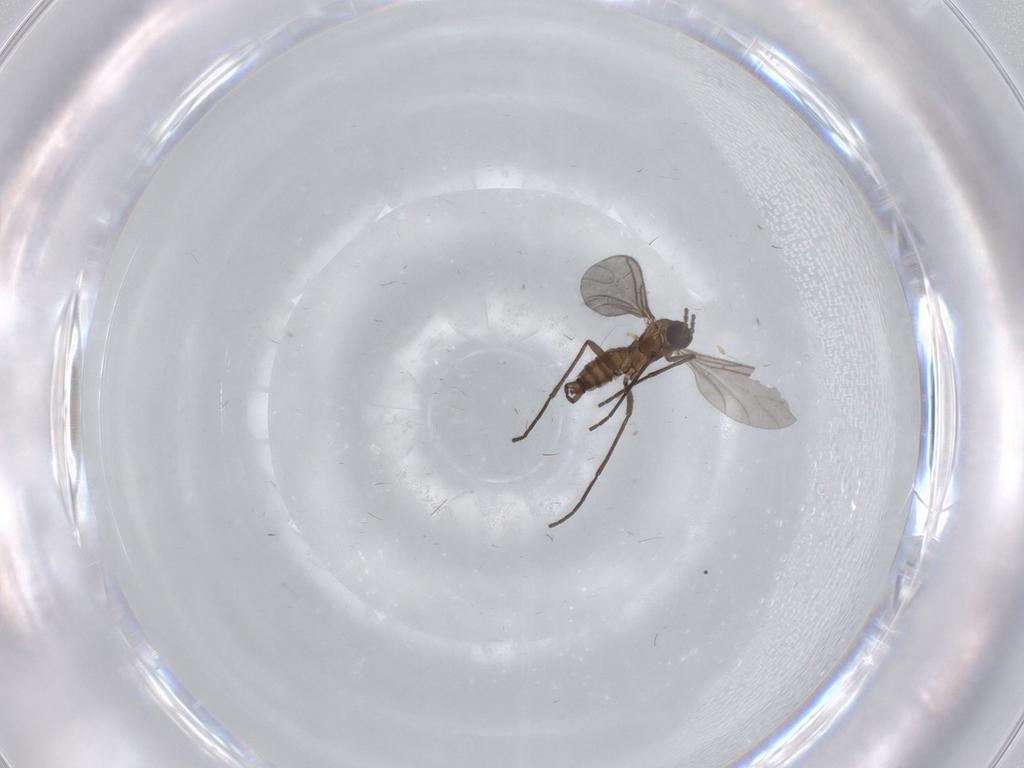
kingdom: Animalia
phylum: Arthropoda
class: Insecta
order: Diptera
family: Sciaridae
